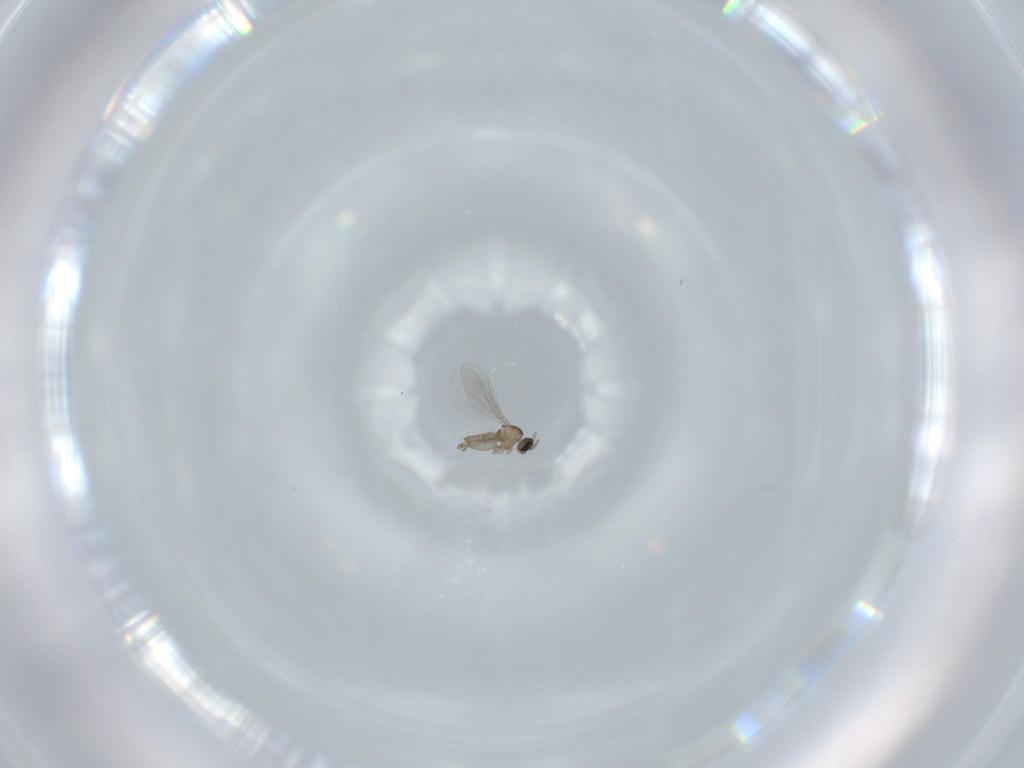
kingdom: Animalia
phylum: Arthropoda
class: Insecta
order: Diptera
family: Cecidomyiidae
